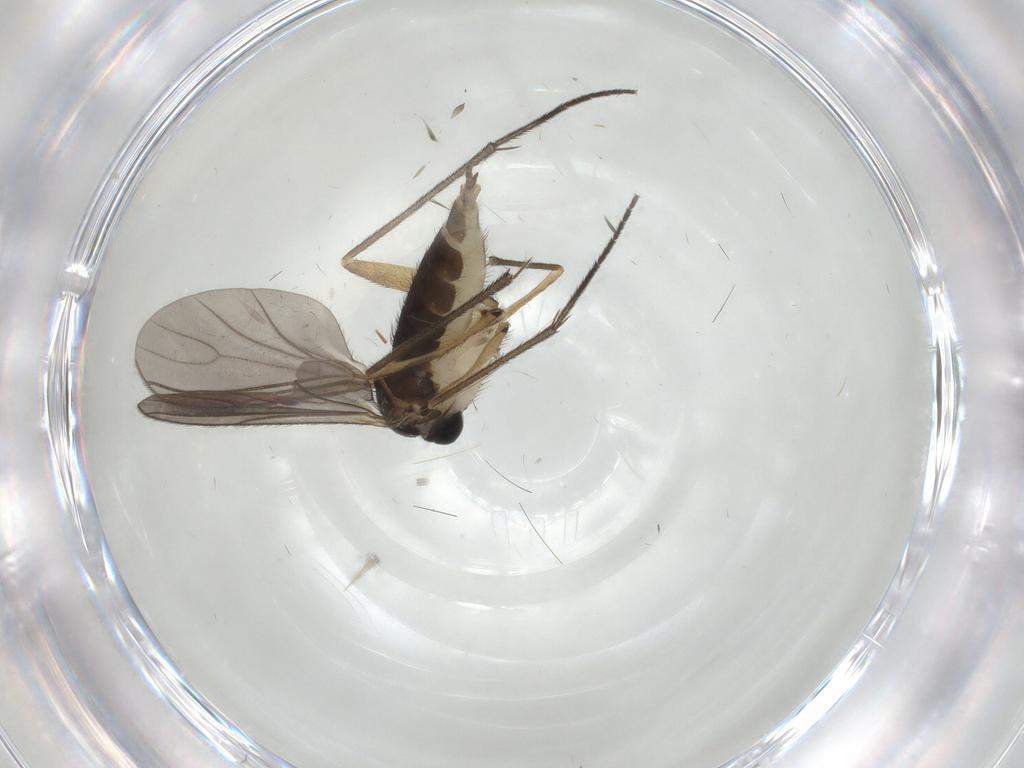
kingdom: Animalia
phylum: Arthropoda
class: Insecta
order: Diptera
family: Sciaridae
